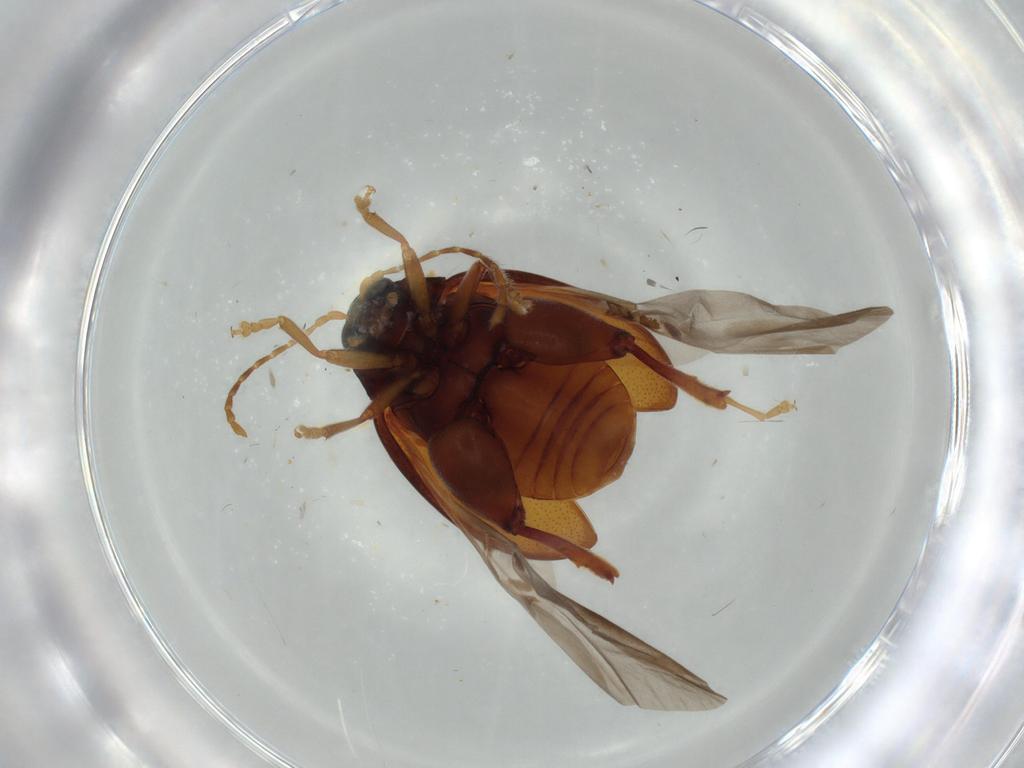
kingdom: Animalia
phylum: Arthropoda
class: Insecta
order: Coleoptera
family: Chrysomelidae
